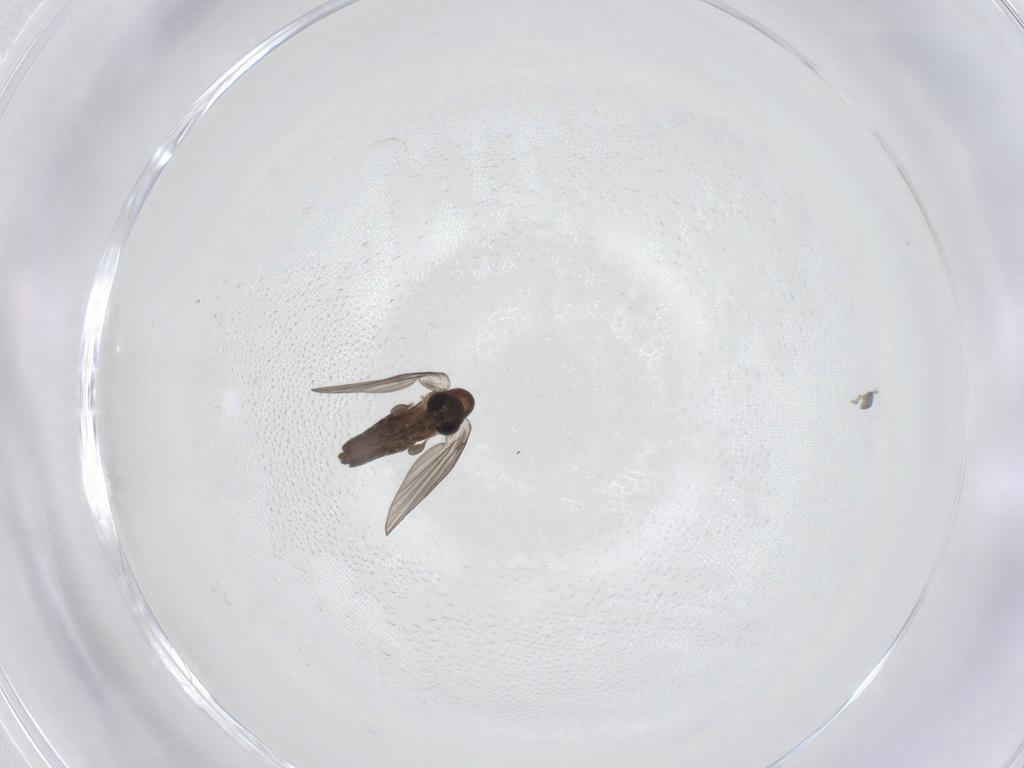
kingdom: Animalia
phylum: Arthropoda
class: Insecta
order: Diptera
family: Psychodidae
